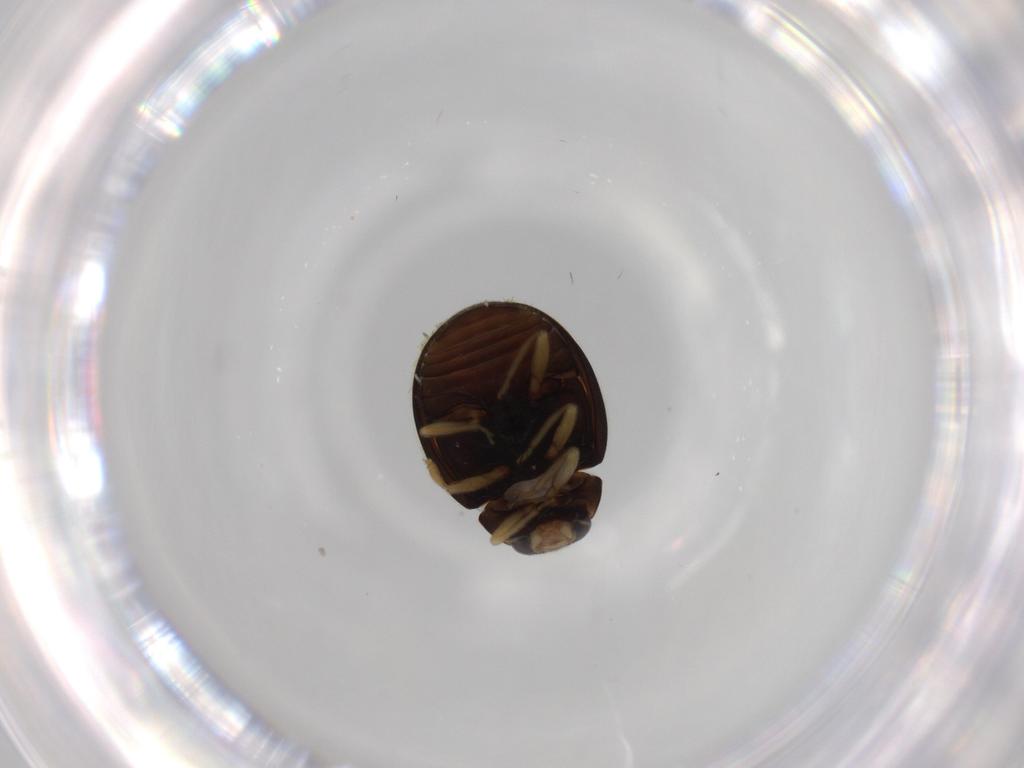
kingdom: Animalia
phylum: Arthropoda
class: Insecta
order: Coleoptera
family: Coccinellidae
